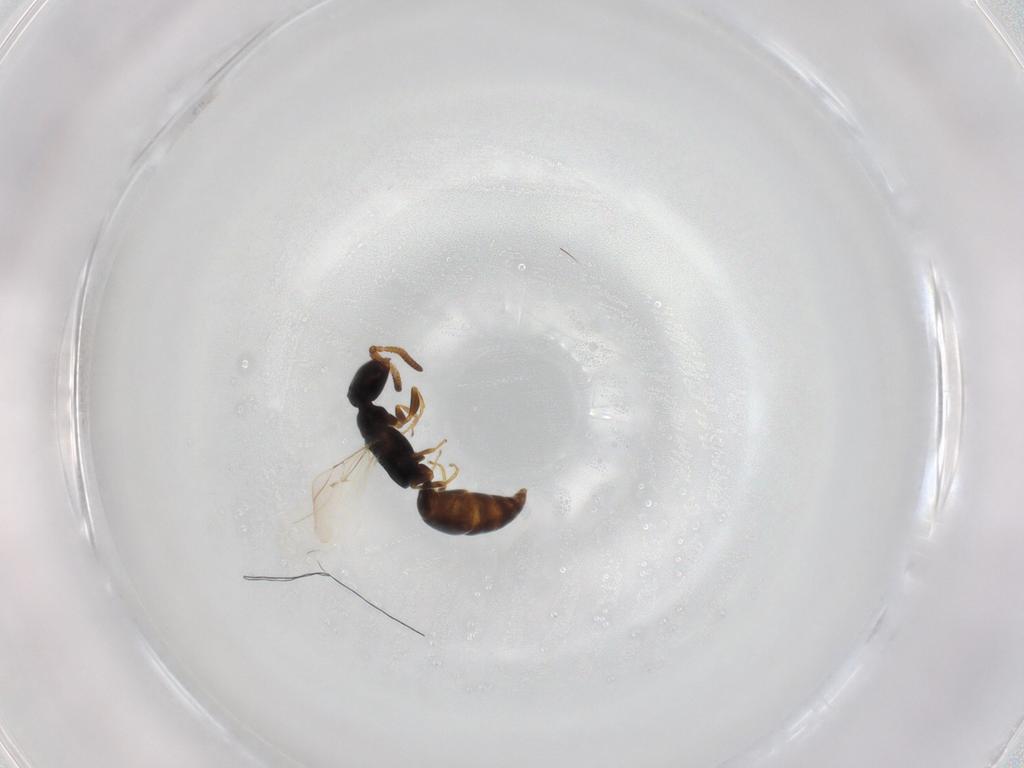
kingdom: Animalia
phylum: Arthropoda
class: Insecta
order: Hymenoptera
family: Bethylidae
